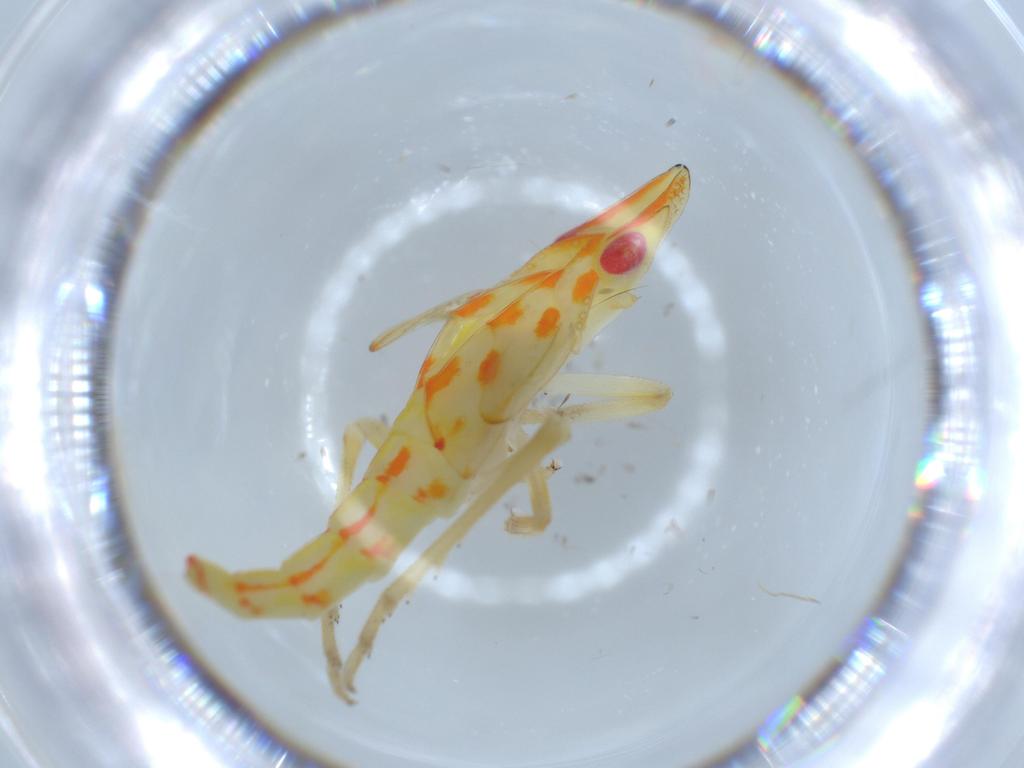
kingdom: Animalia
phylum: Arthropoda
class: Insecta
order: Hemiptera
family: Tropiduchidae
